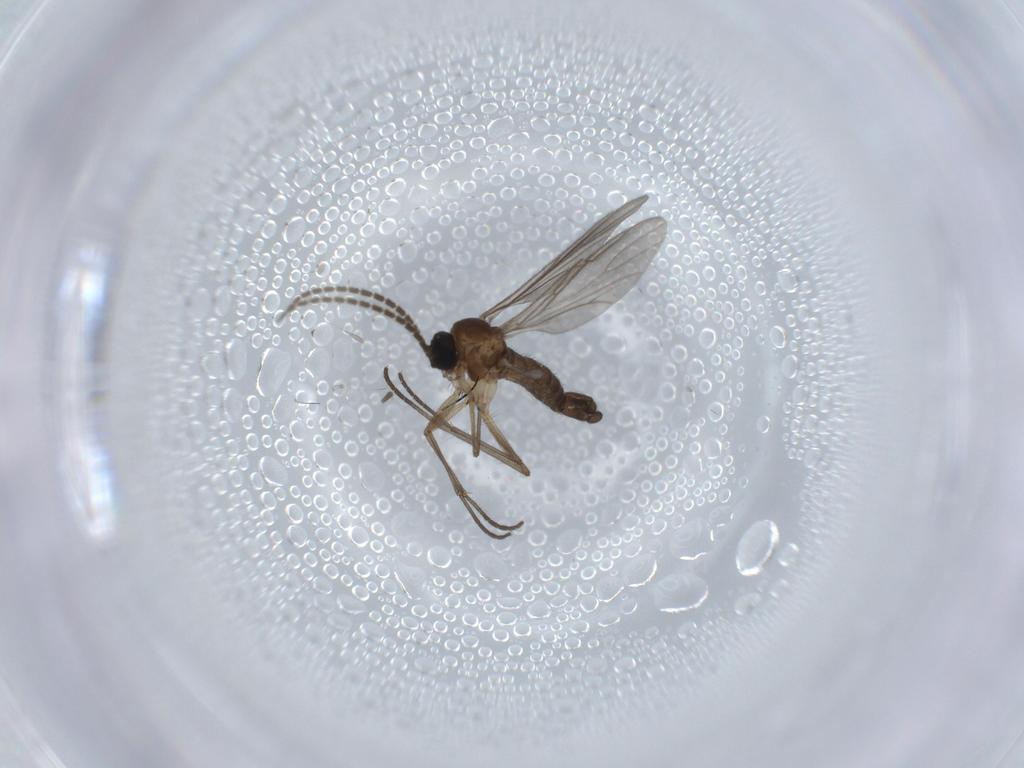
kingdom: Animalia
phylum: Arthropoda
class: Insecta
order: Diptera
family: Sciaridae
